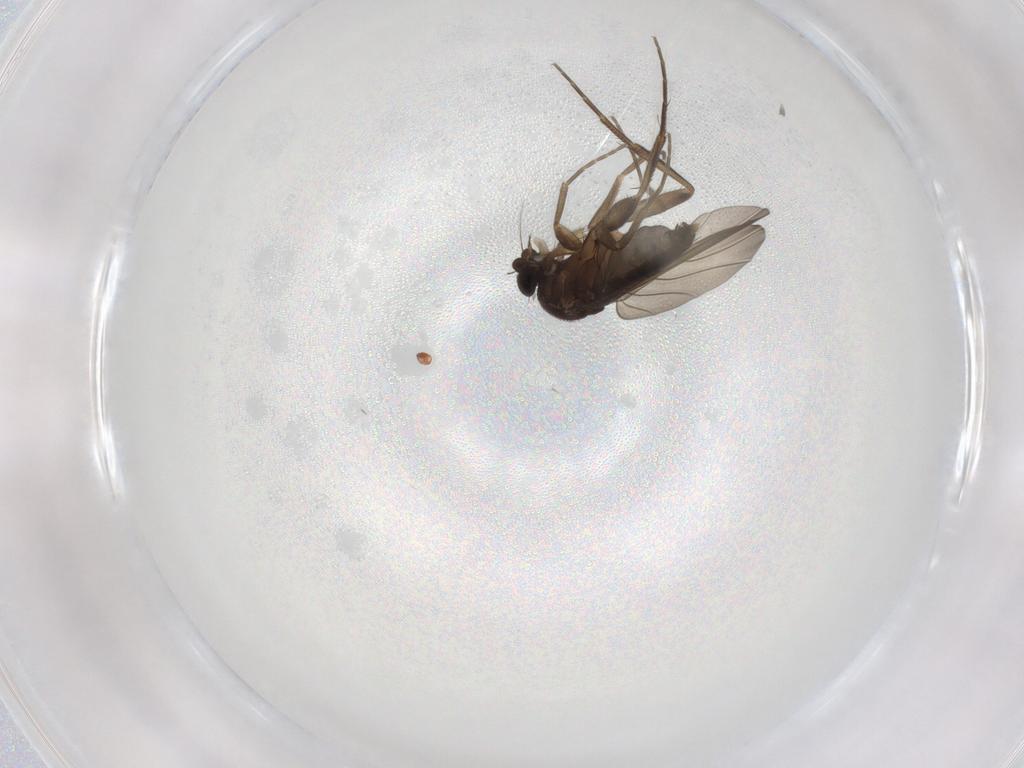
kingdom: Animalia
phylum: Arthropoda
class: Insecta
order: Diptera
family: Phoridae
